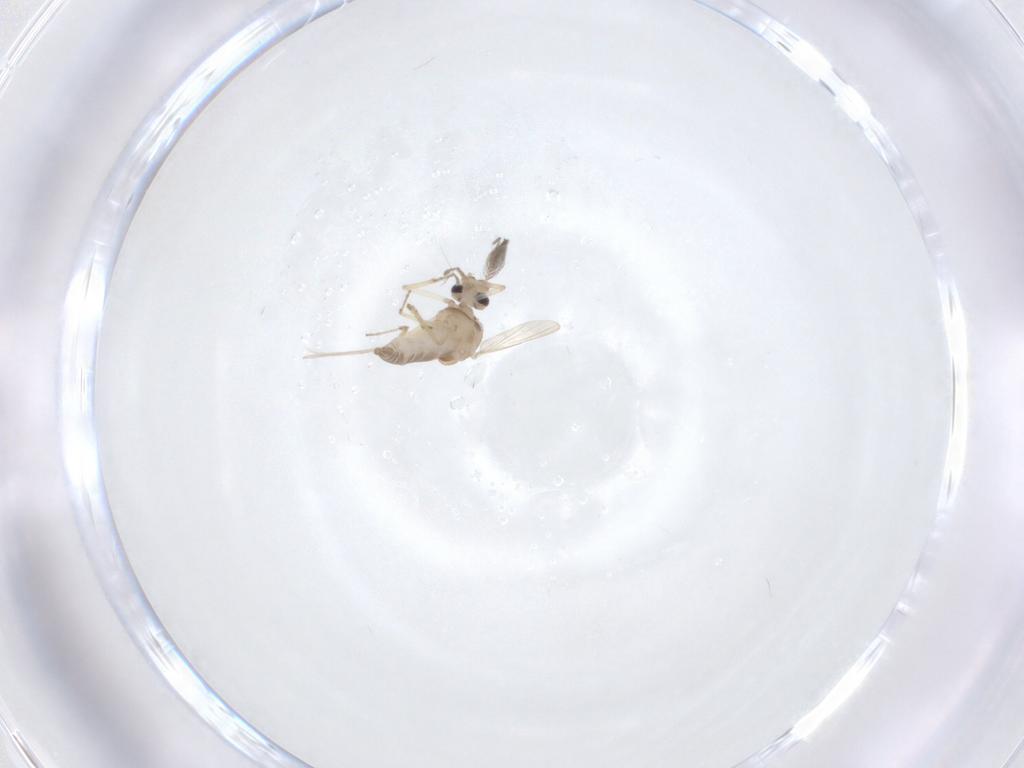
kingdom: Animalia
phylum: Arthropoda
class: Insecta
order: Diptera
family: Ceratopogonidae
